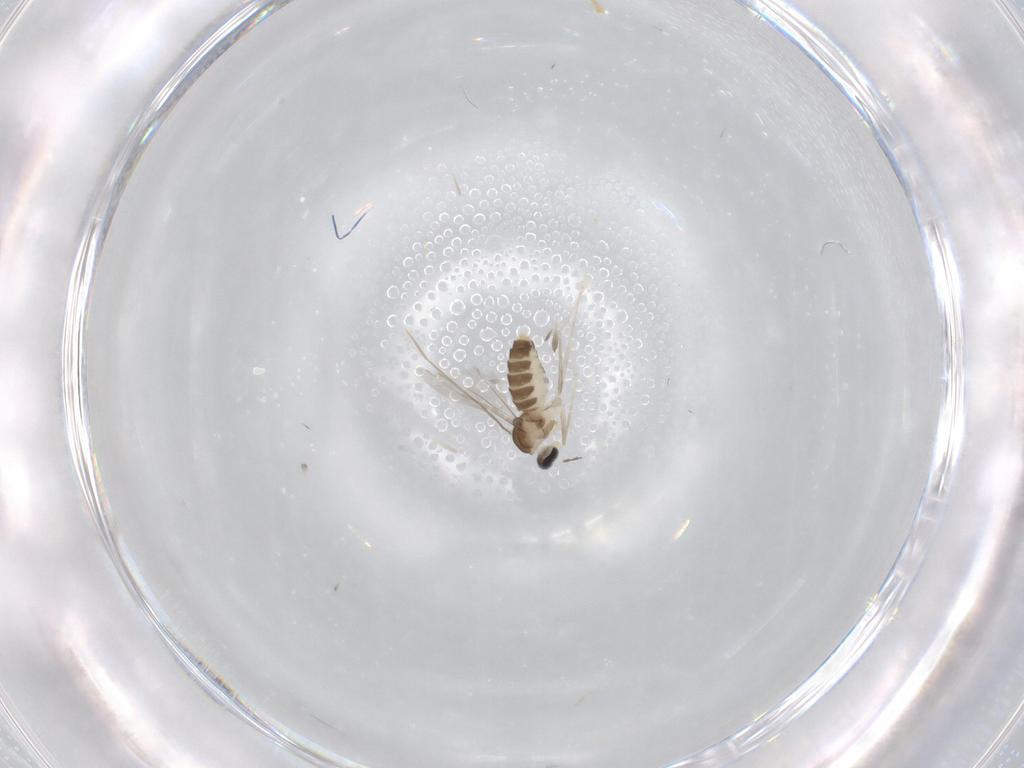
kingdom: Animalia
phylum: Arthropoda
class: Insecta
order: Diptera
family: Cecidomyiidae
